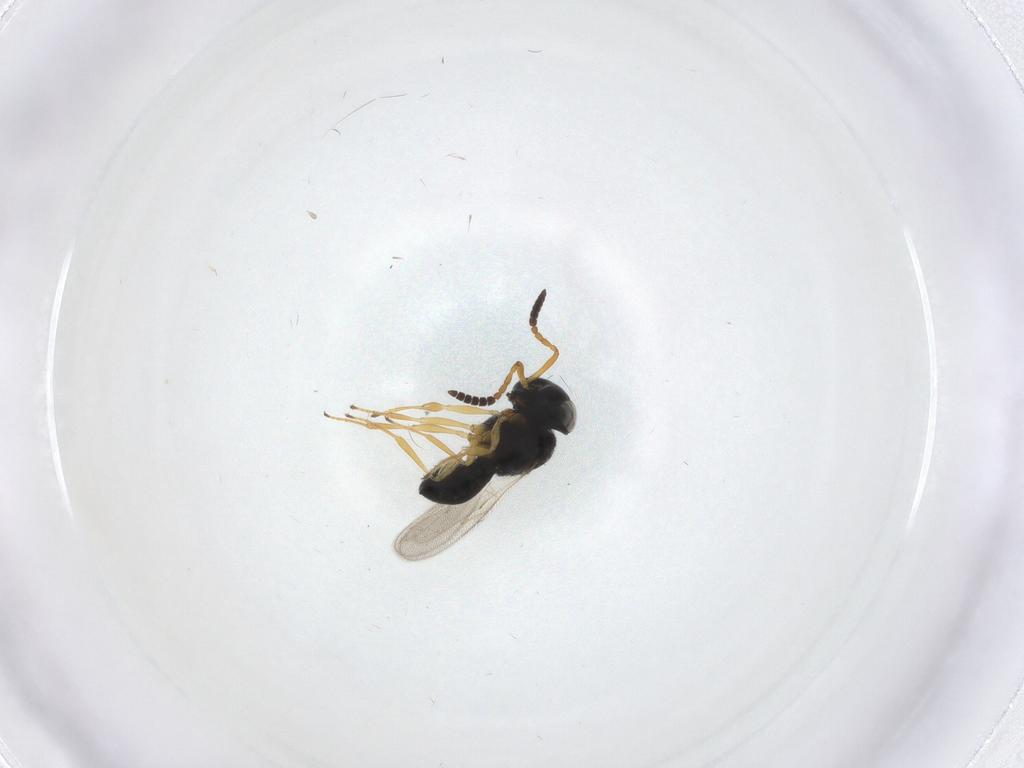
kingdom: Animalia
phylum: Arthropoda
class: Insecta
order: Hymenoptera
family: Scelionidae
